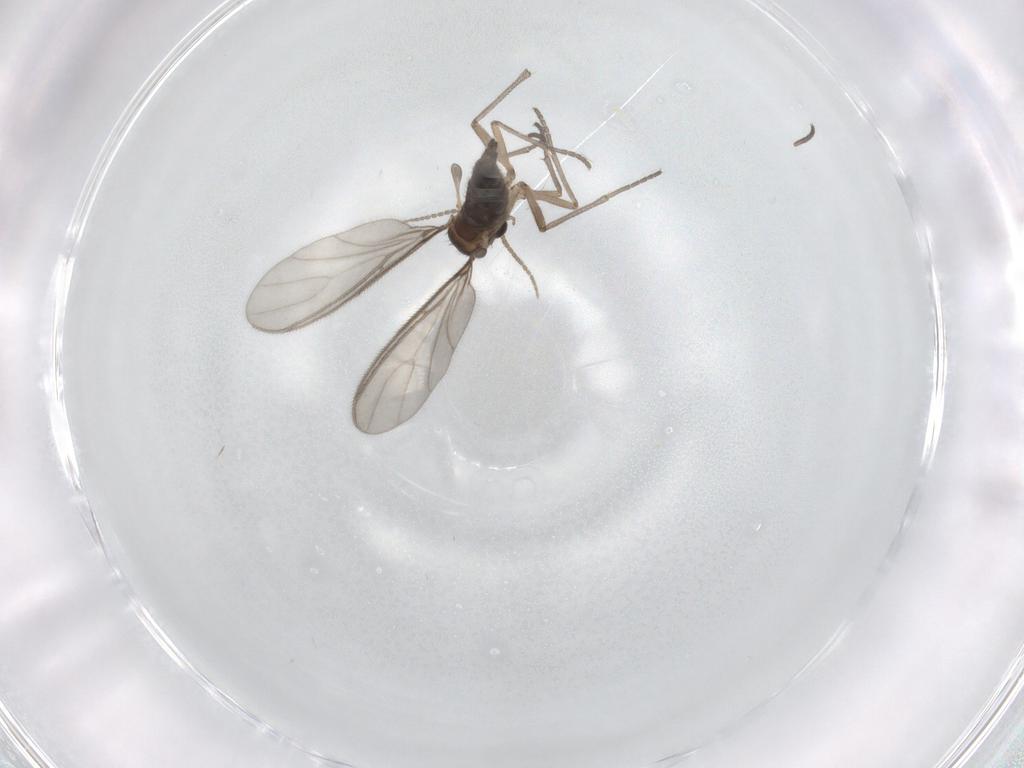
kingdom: Animalia
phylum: Arthropoda
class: Insecta
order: Diptera
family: Sciaridae
